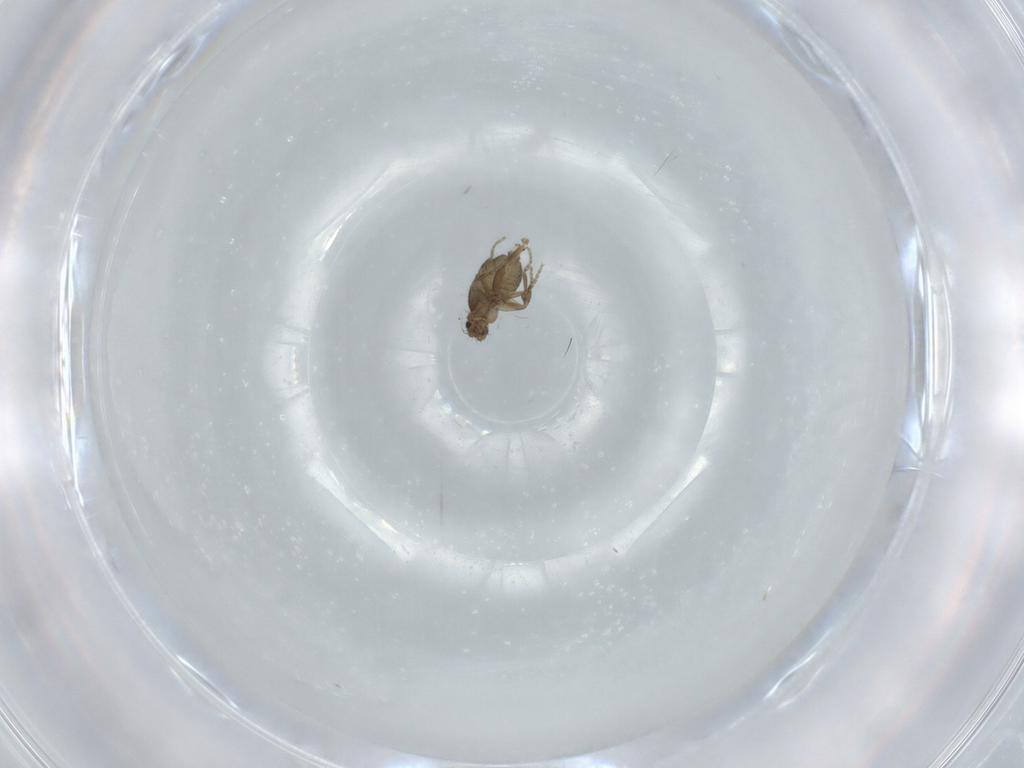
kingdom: Animalia
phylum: Arthropoda
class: Insecta
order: Diptera
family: Phoridae
